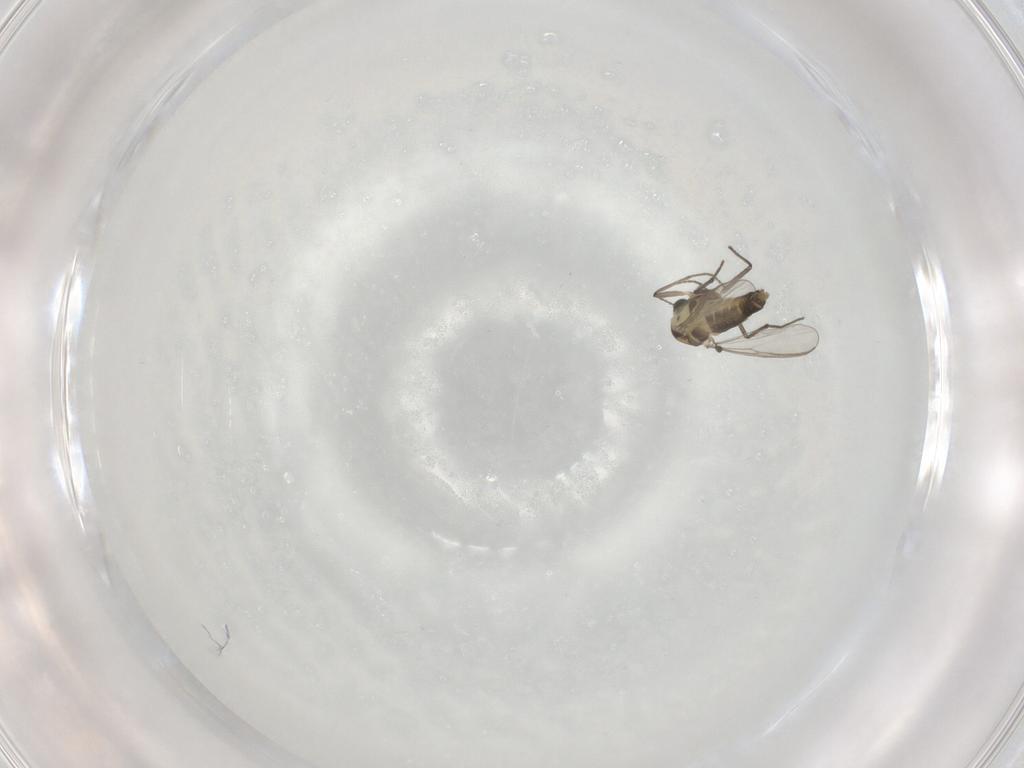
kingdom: Animalia
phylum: Arthropoda
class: Insecta
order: Diptera
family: Chironomidae
